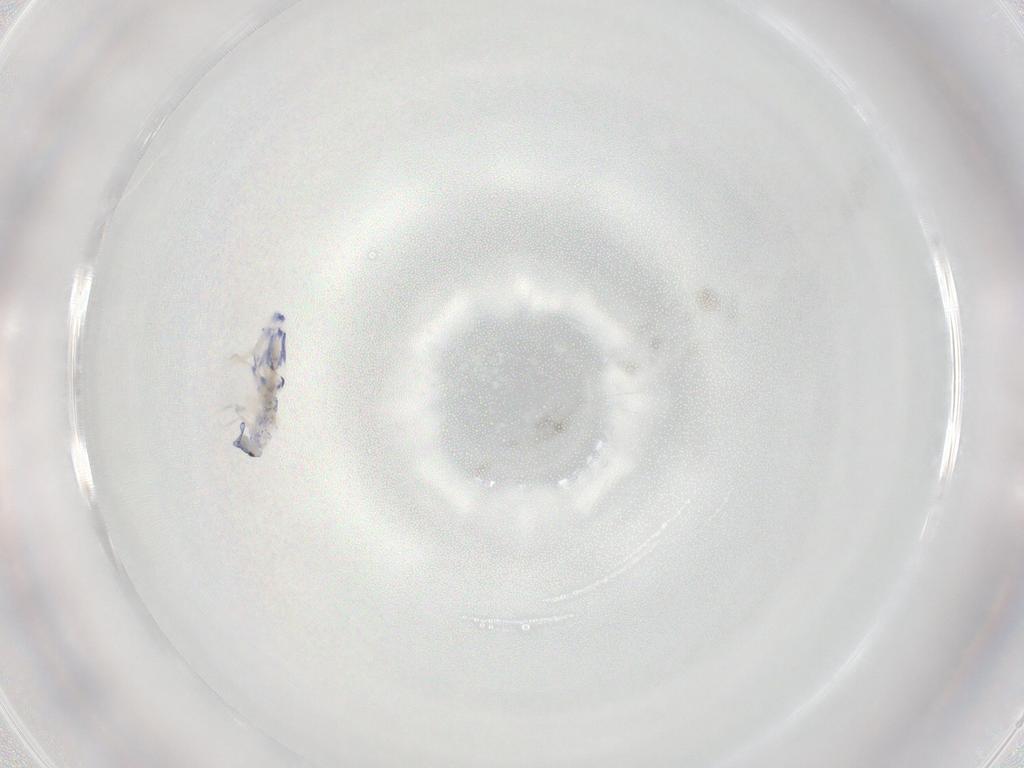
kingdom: Animalia
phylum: Arthropoda
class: Collembola
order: Entomobryomorpha
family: Entomobryidae
